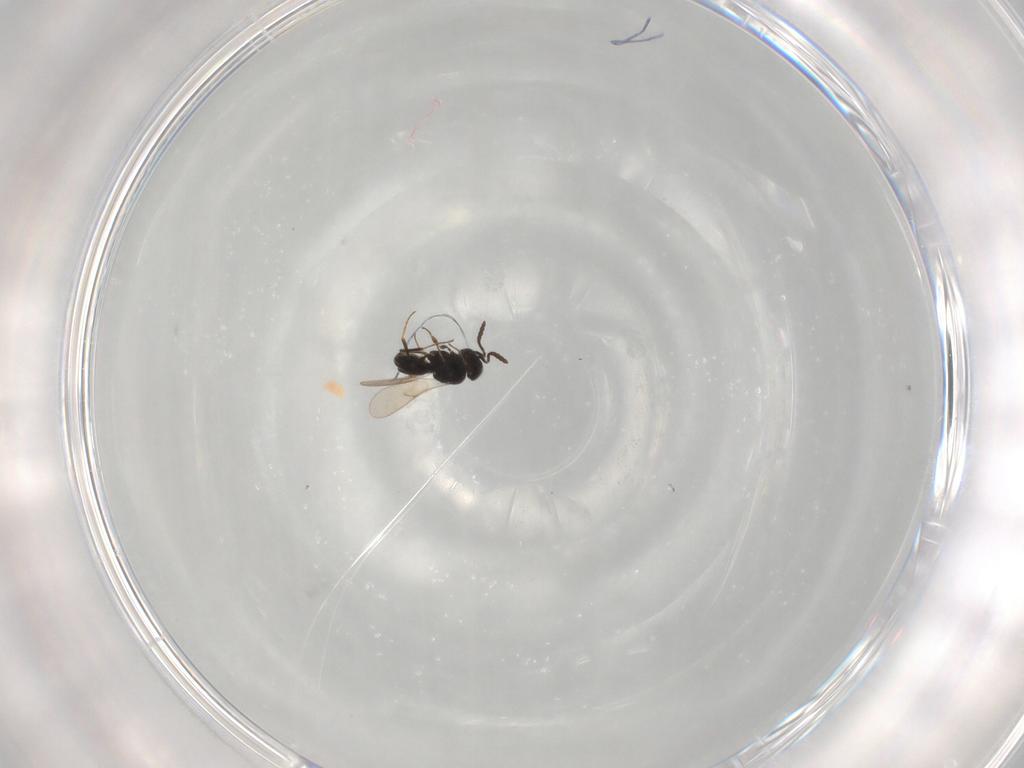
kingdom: Animalia
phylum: Arthropoda
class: Insecta
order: Hymenoptera
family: Scelionidae
